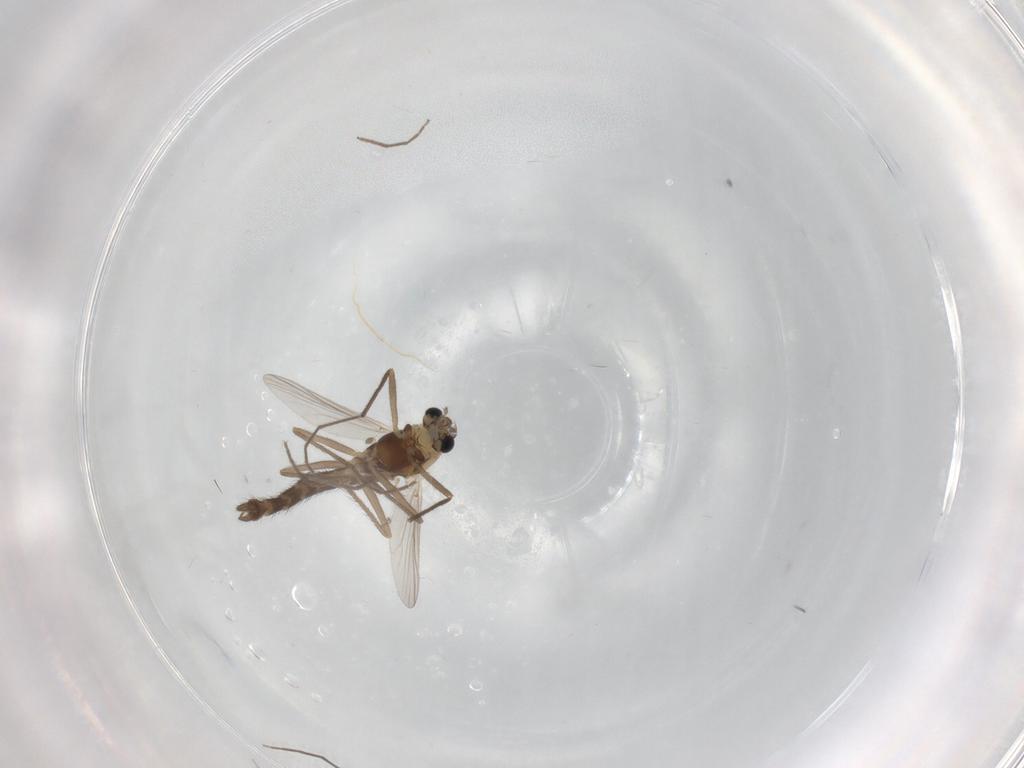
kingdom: Animalia
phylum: Arthropoda
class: Insecta
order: Diptera
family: Chironomidae
